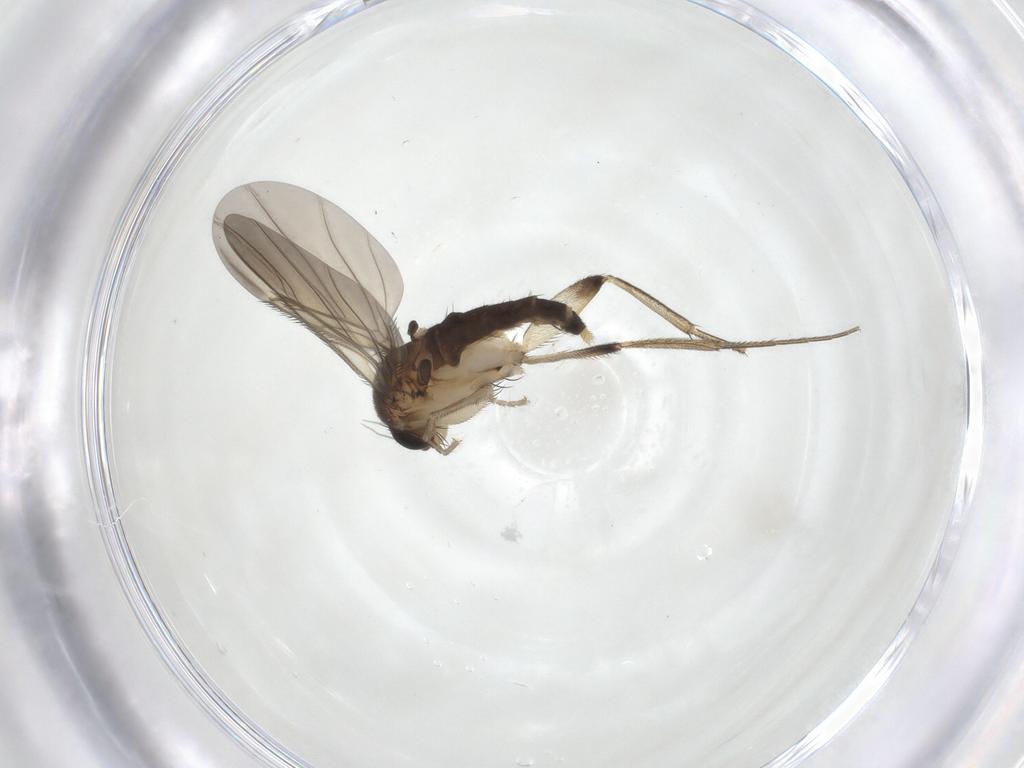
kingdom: Animalia
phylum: Arthropoda
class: Insecta
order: Diptera
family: Phoridae
